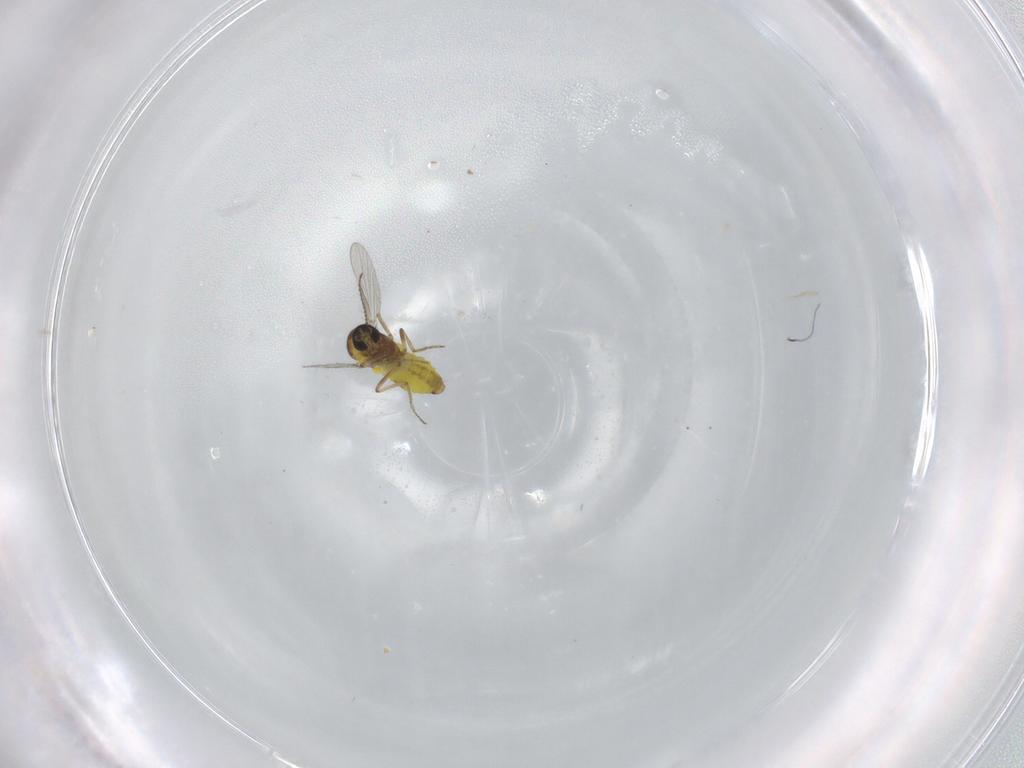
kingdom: Animalia
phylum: Arthropoda
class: Insecta
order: Diptera
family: Ceratopogonidae
